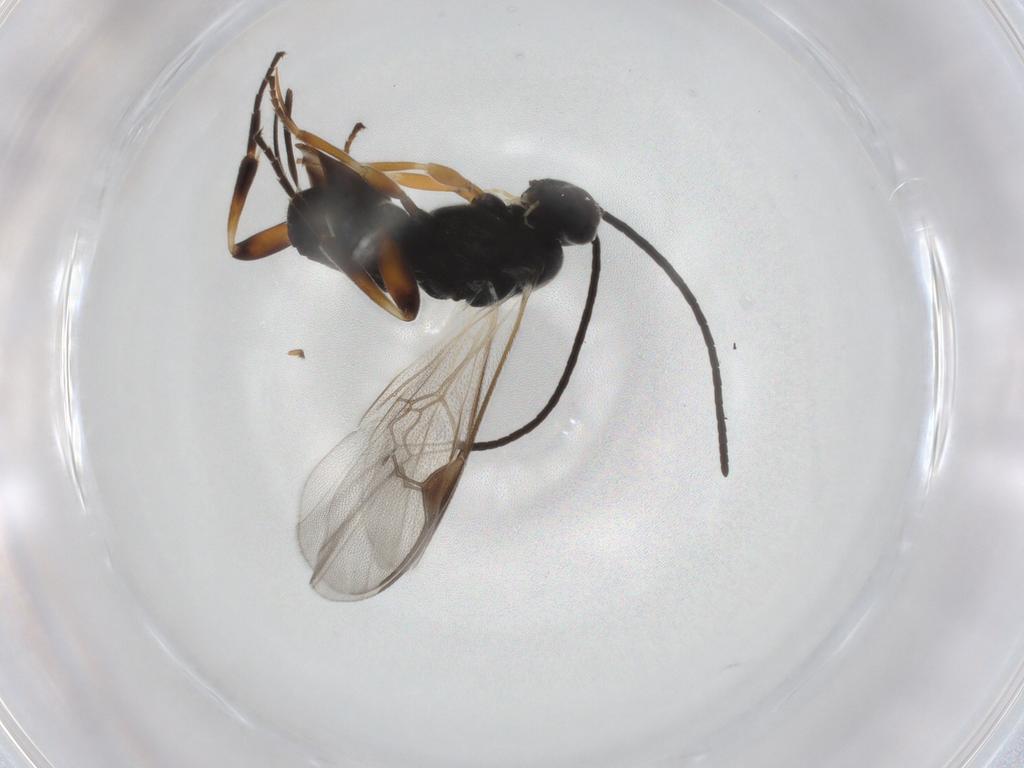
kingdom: Animalia
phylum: Arthropoda
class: Insecta
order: Hymenoptera
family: Braconidae
